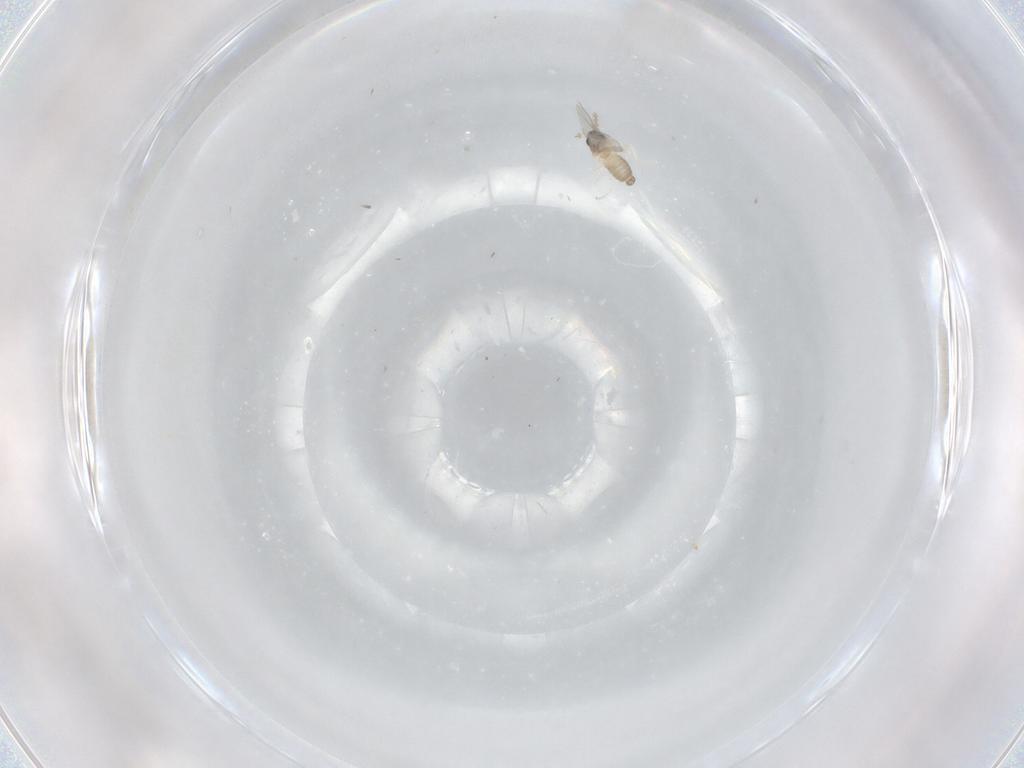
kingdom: Animalia
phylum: Arthropoda
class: Insecta
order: Diptera
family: Cecidomyiidae
